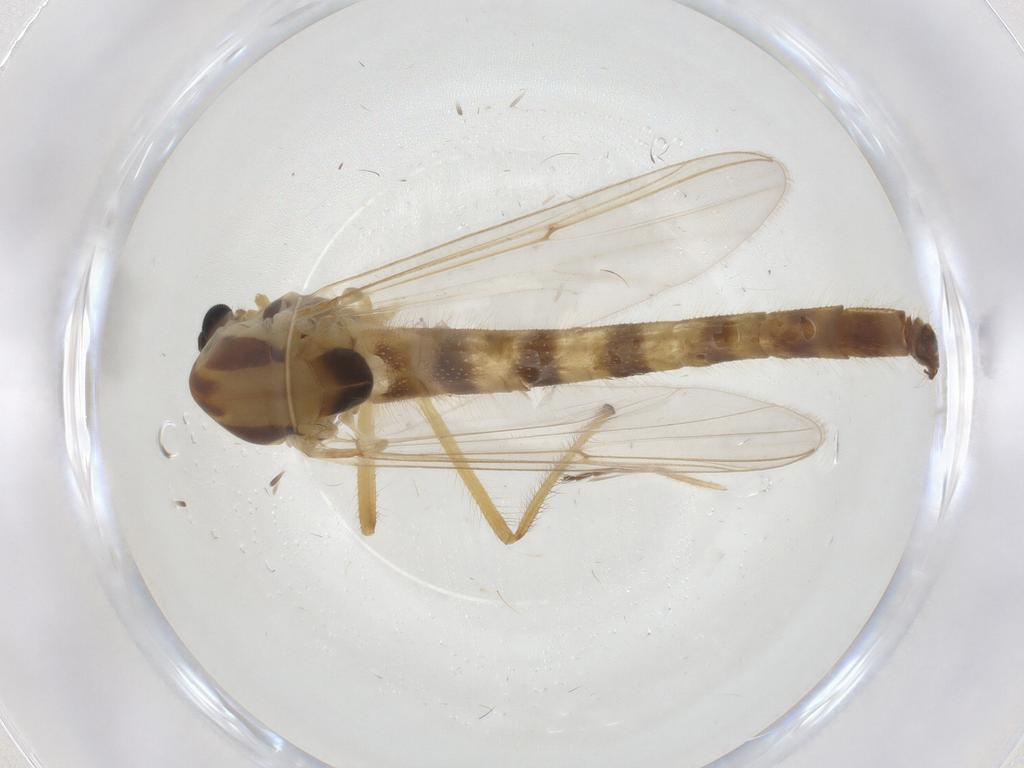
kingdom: Animalia
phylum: Arthropoda
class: Insecta
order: Diptera
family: Chironomidae
